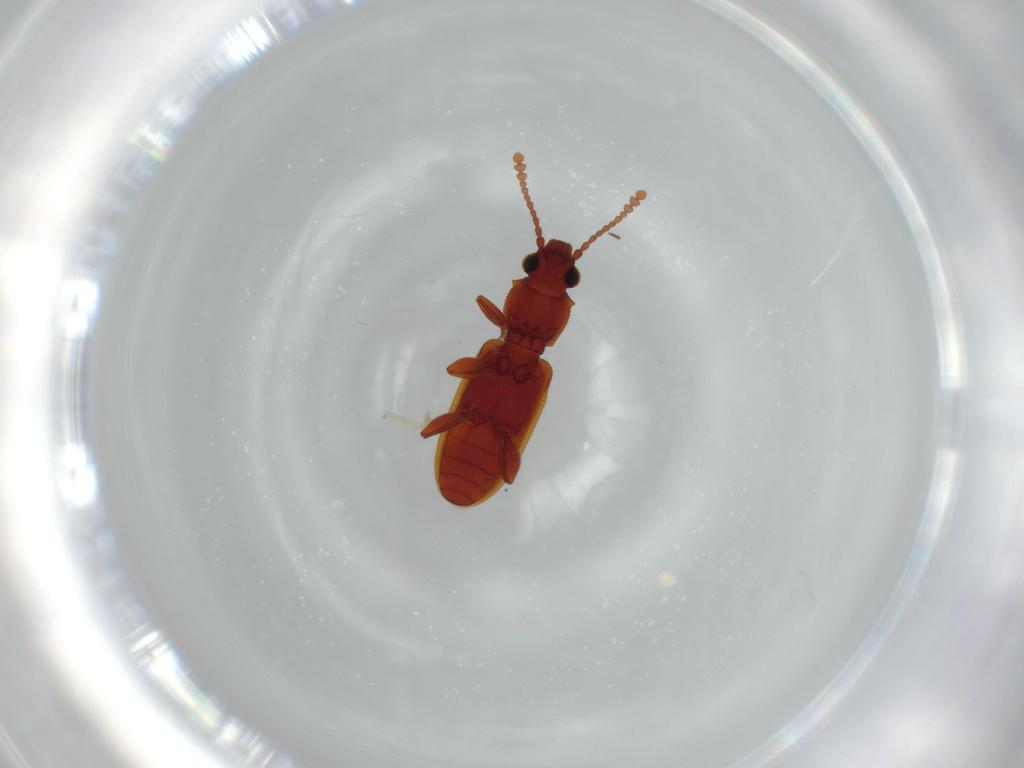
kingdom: Animalia
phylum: Arthropoda
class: Insecta
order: Coleoptera
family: Silvanidae
